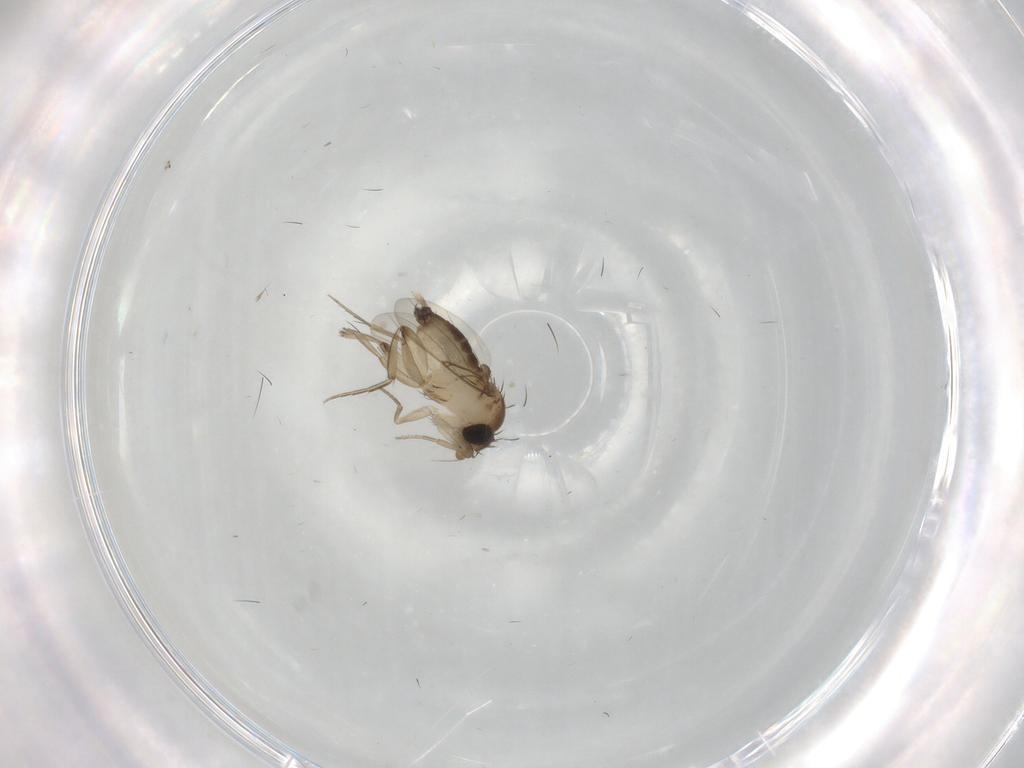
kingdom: Animalia
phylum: Arthropoda
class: Insecta
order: Diptera
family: Phoridae
